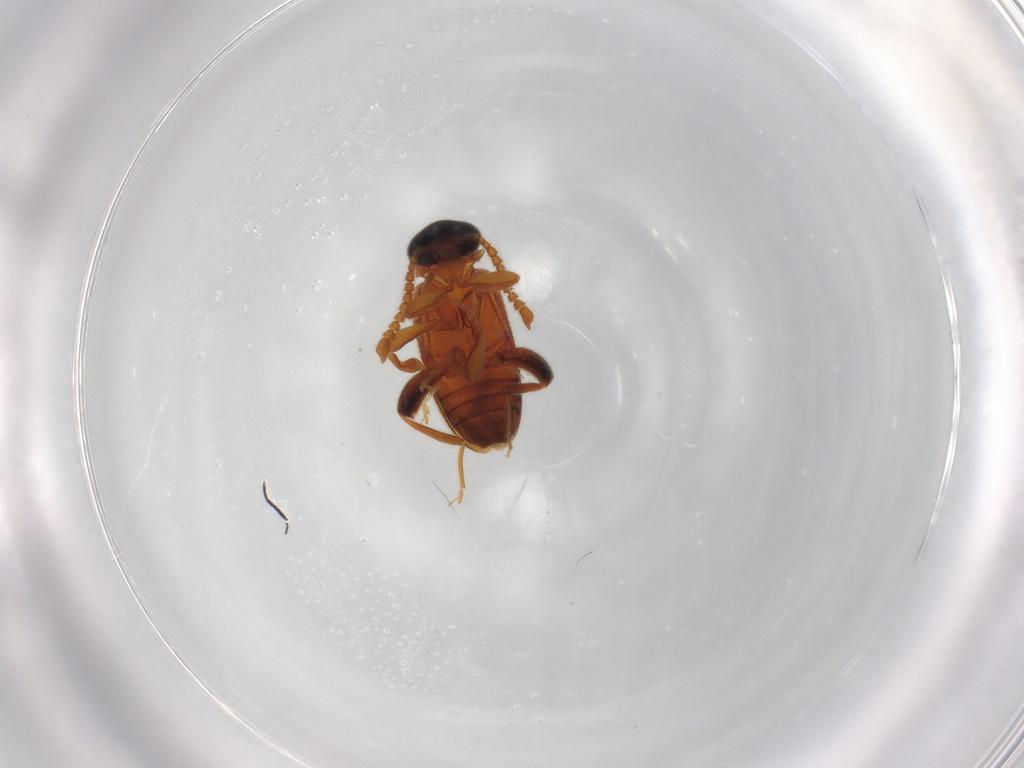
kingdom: Animalia
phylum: Arthropoda
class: Insecta
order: Coleoptera
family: Aderidae
